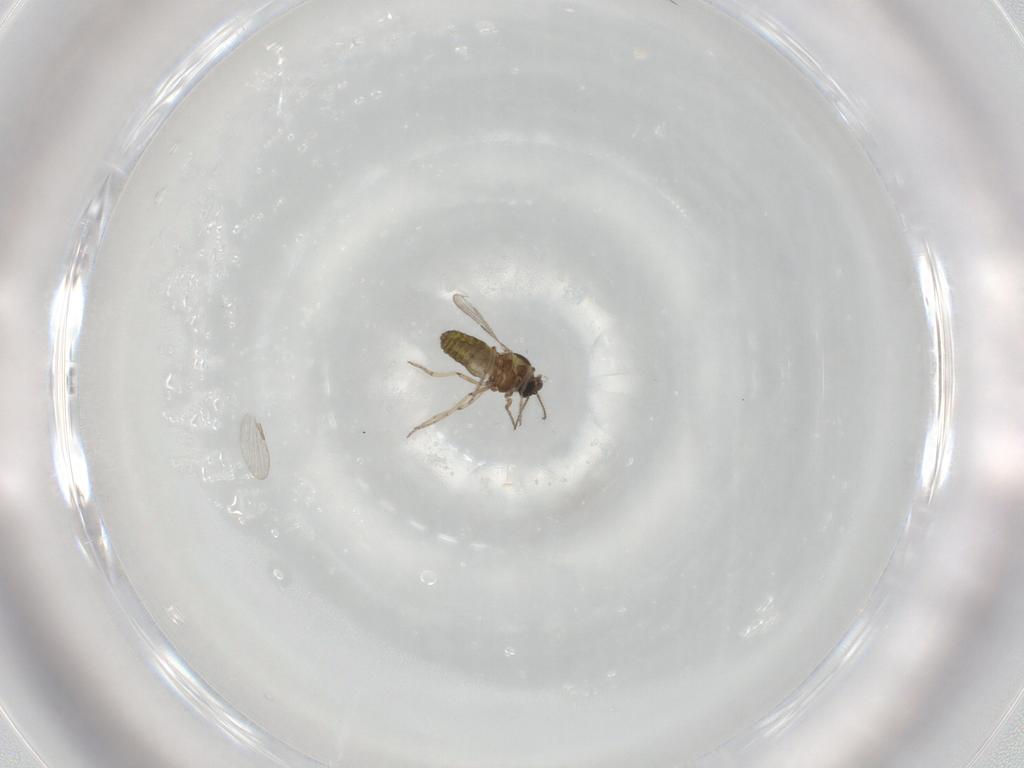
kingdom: Animalia
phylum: Arthropoda
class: Insecta
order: Diptera
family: Ceratopogonidae
